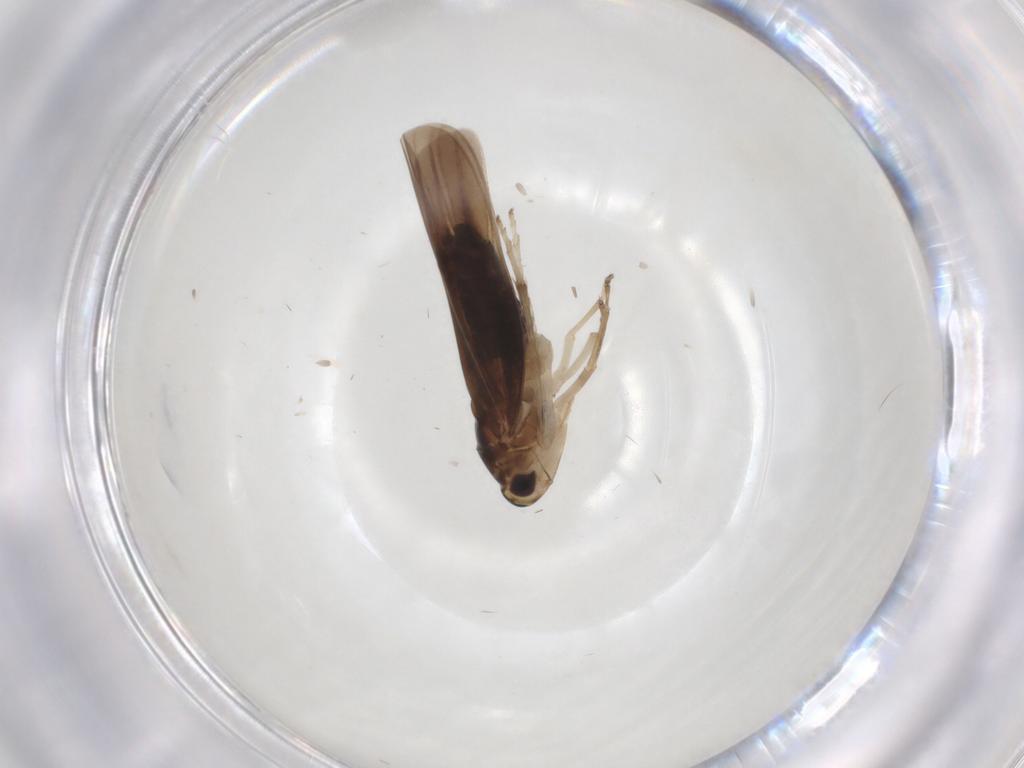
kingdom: Animalia
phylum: Arthropoda
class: Insecta
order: Hemiptera
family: Cicadellidae
